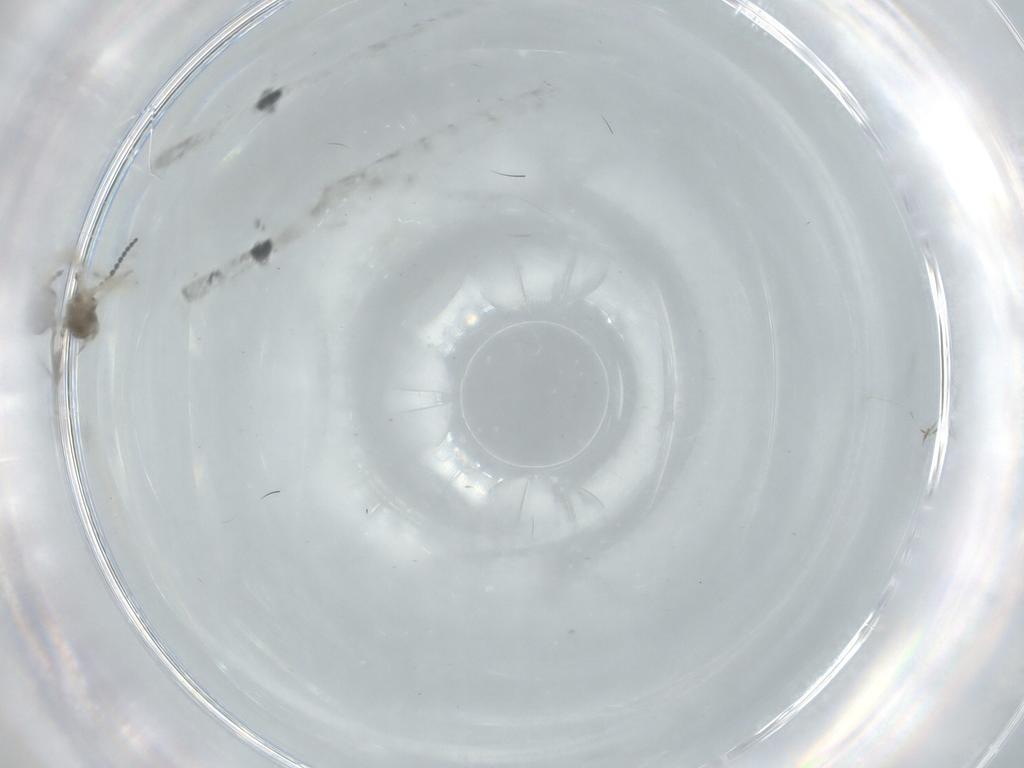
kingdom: Animalia
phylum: Arthropoda
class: Insecta
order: Diptera
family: Cecidomyiidae
